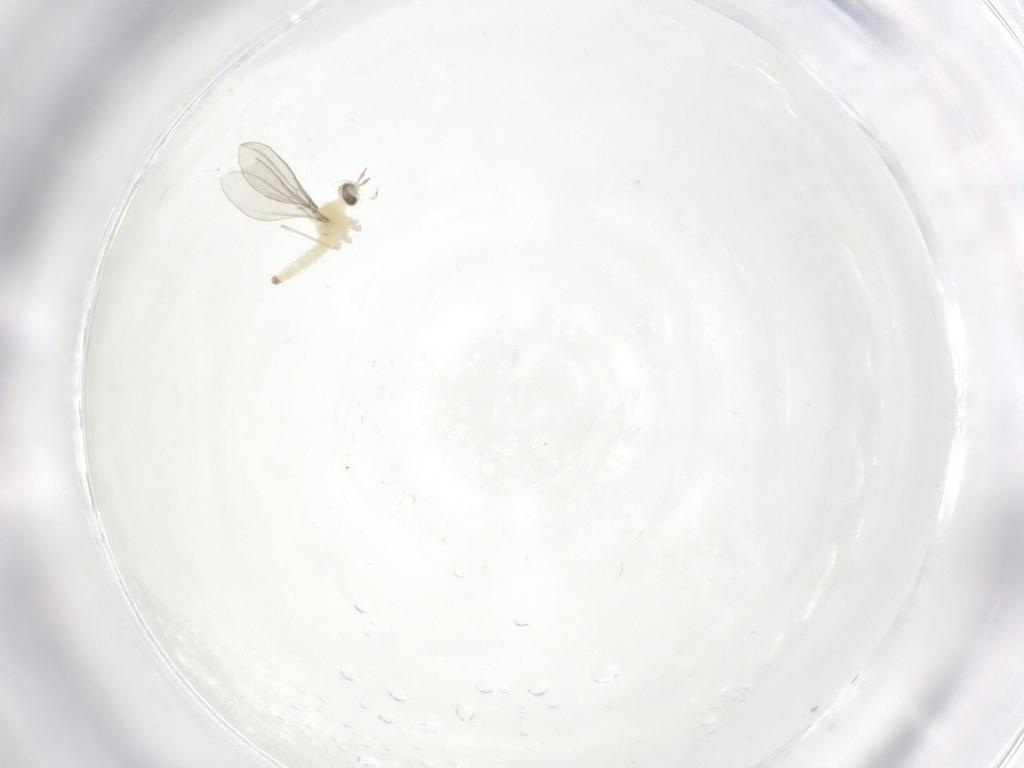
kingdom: Animalia
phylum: Arthropoda
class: Insecta
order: Diptera
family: Cecidomyiidae
